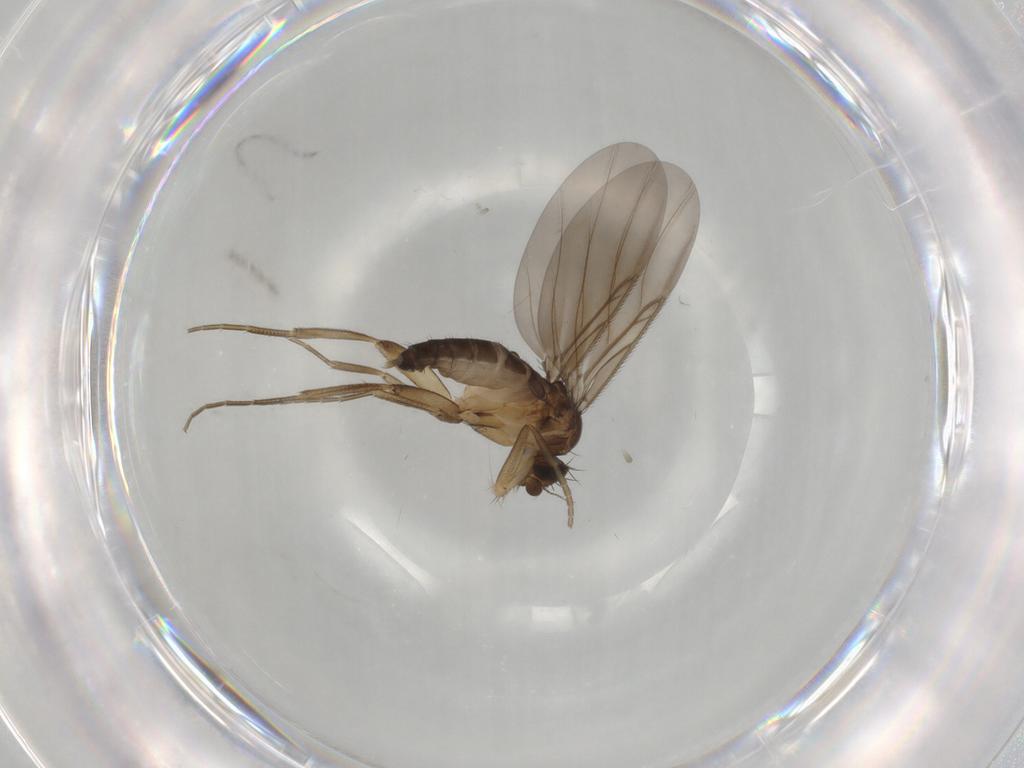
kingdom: Animalia
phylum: Arthropoda
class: Insecta
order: Diptera
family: Phoridae
